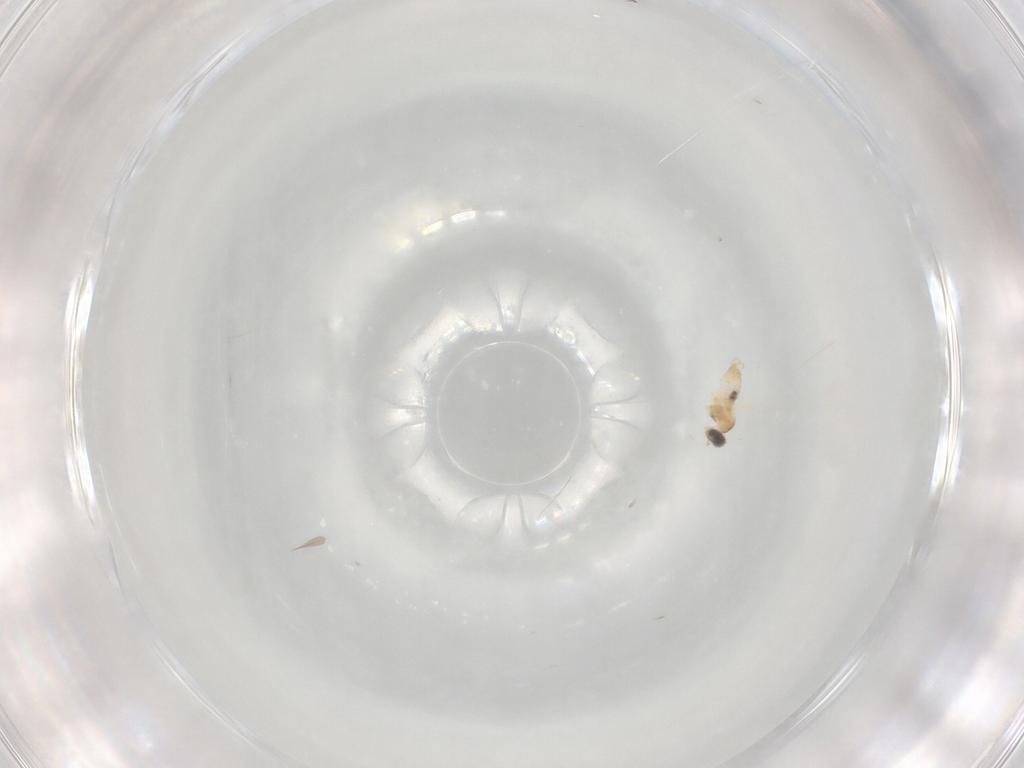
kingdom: Animalia
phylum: Arthropoda
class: Insecta
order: Diptera
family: Cecidomyiidae
